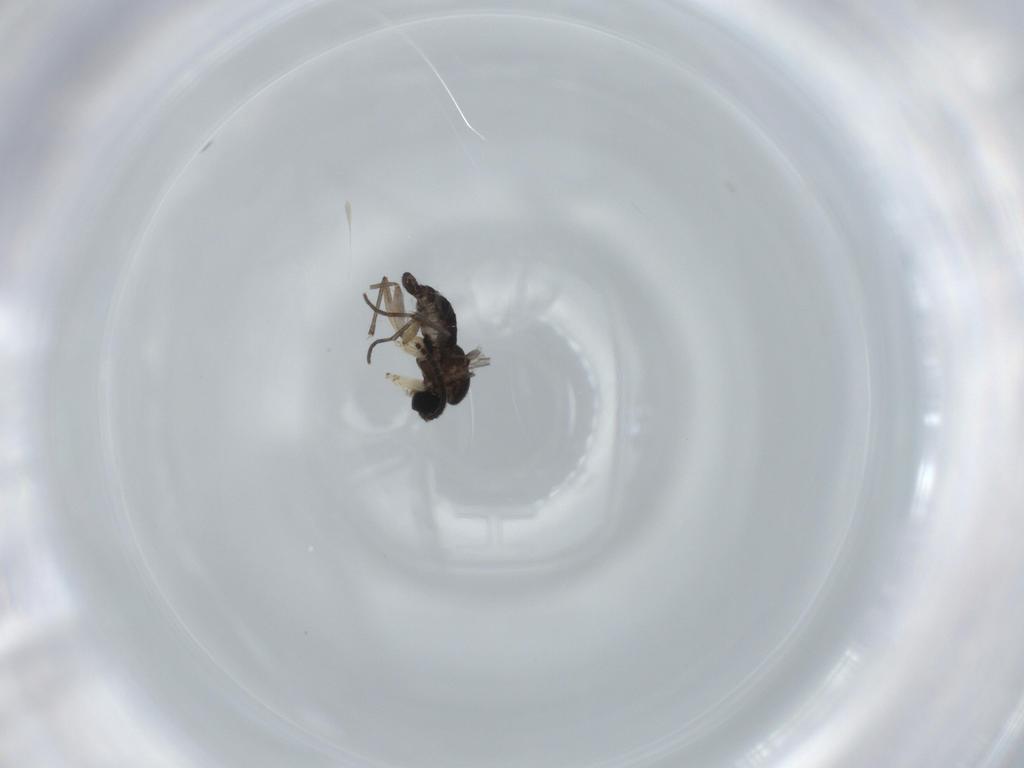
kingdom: Animalia
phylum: Arthropoda
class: Insecta
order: Diptera
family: Sciaridae
